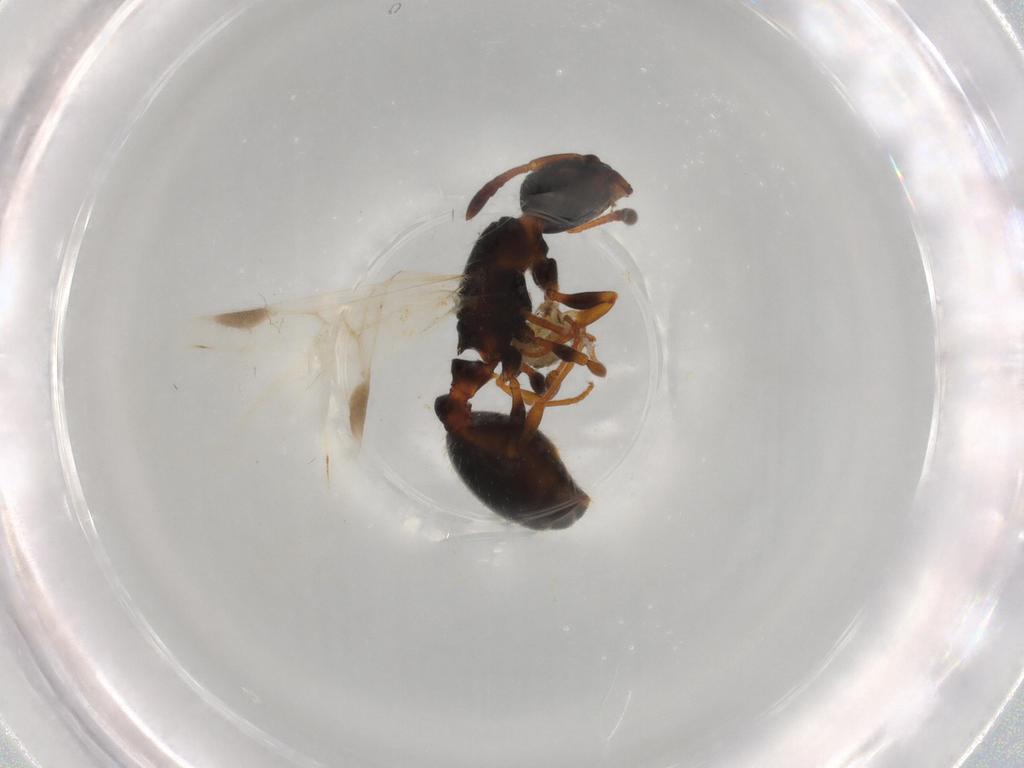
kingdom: Animalia
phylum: Arthropoda
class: Insecta
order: Hymenoptera
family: Formicidae
